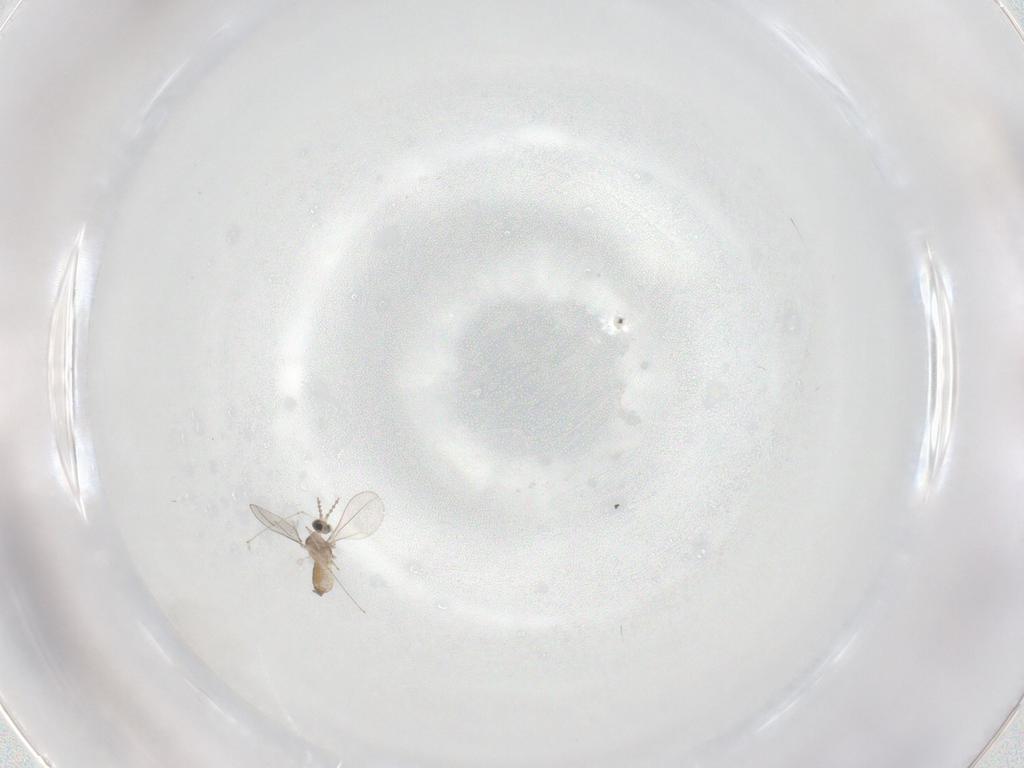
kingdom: Animalia
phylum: Arthropoda
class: Insecta
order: Diptera
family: Cecidomyiidae
